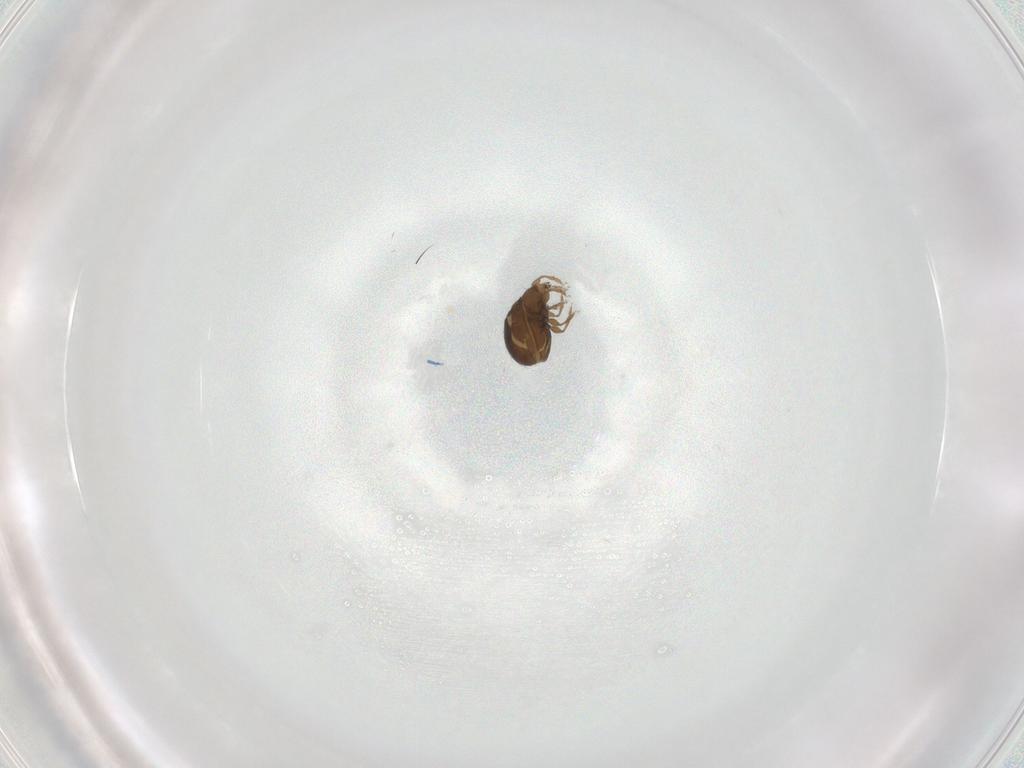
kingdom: Animalia
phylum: Arthropoda
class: Arachnida
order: Sarcoptiformes
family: Oribatulidae
